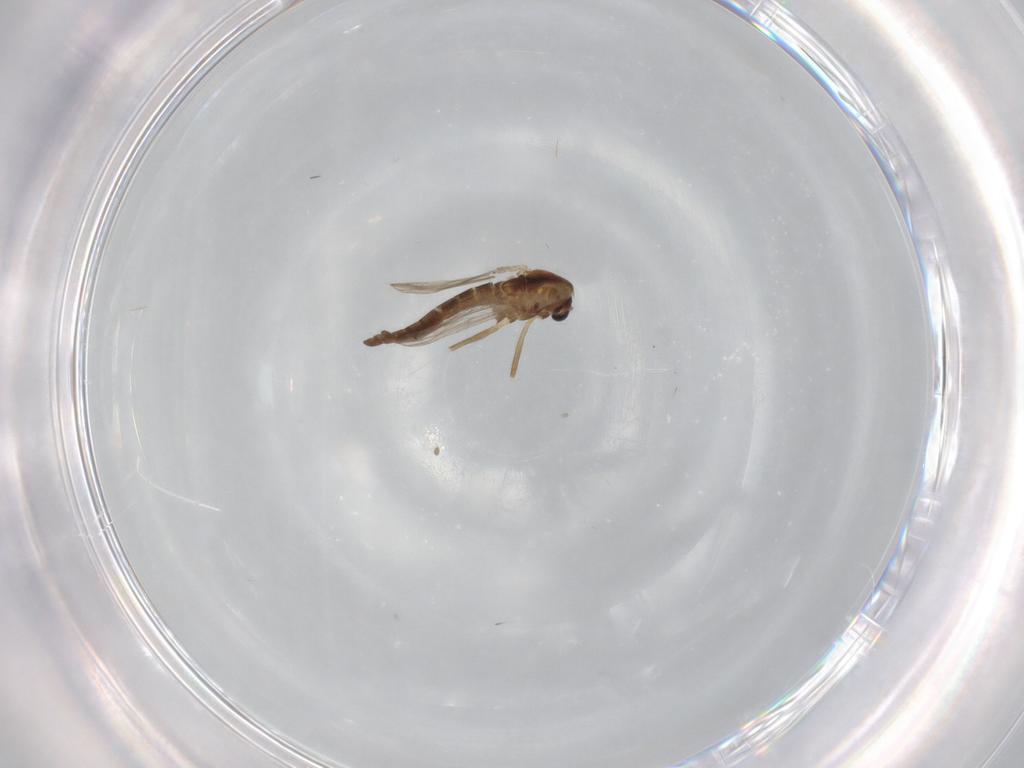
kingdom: Animalia
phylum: Arthropoda
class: Insecta
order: Diptera
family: Chironomidae
